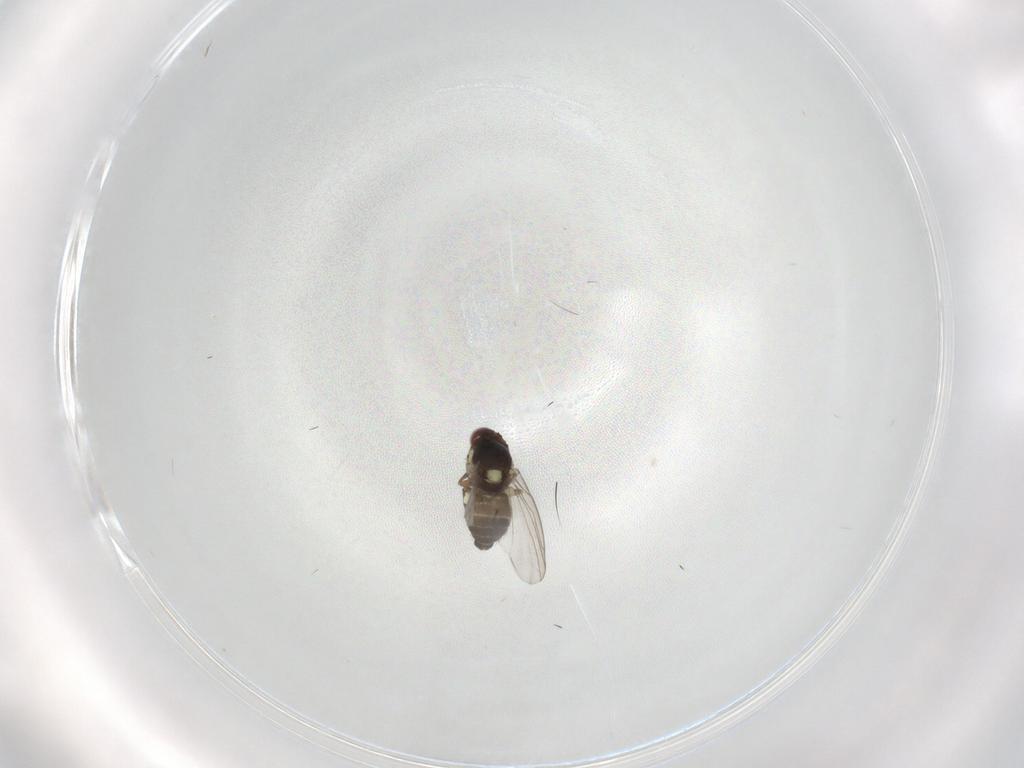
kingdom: Animalia
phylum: Arthropoda
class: Insecta
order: Diptera
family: Agromyzidae
